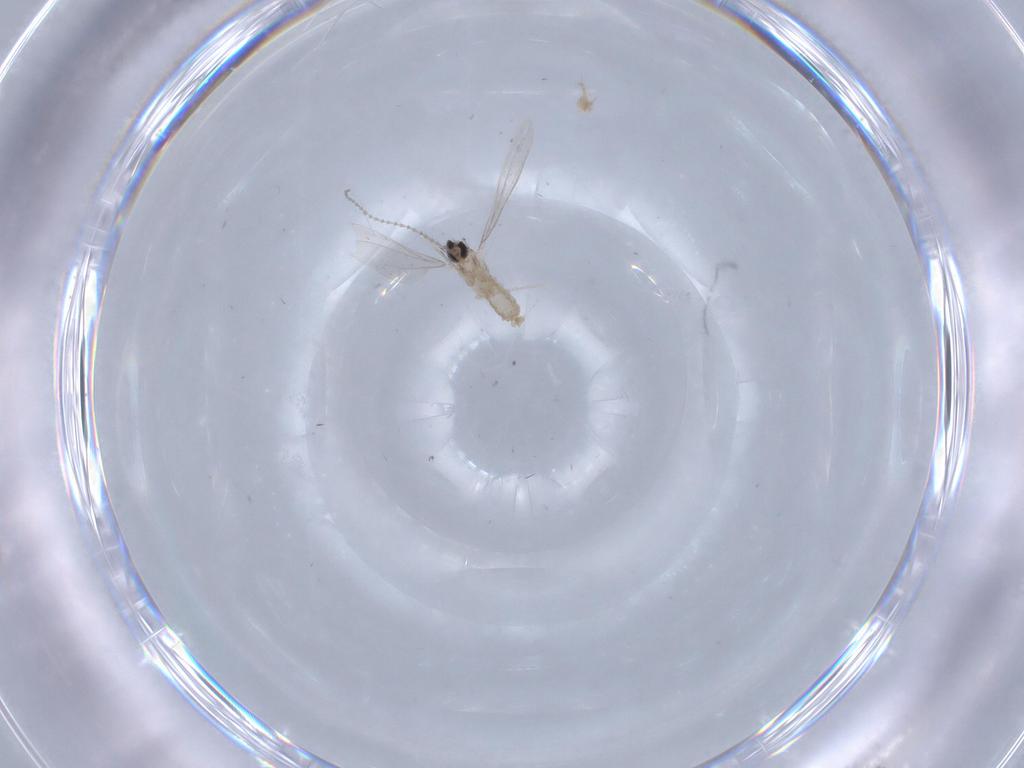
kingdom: Animalia
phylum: Arthropoda
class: Insecta
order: Diptera
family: Cecidomyiidae
